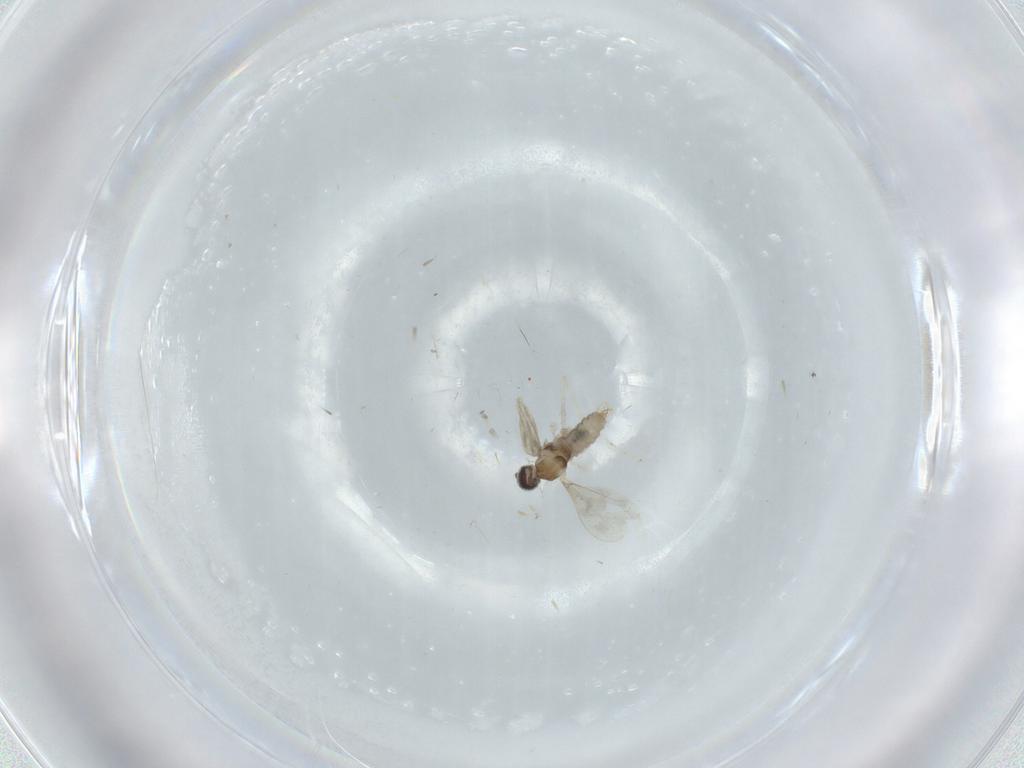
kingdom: Animalia
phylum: Arthropoda
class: Insecta
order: Diptera
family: Cecidomyiidae
